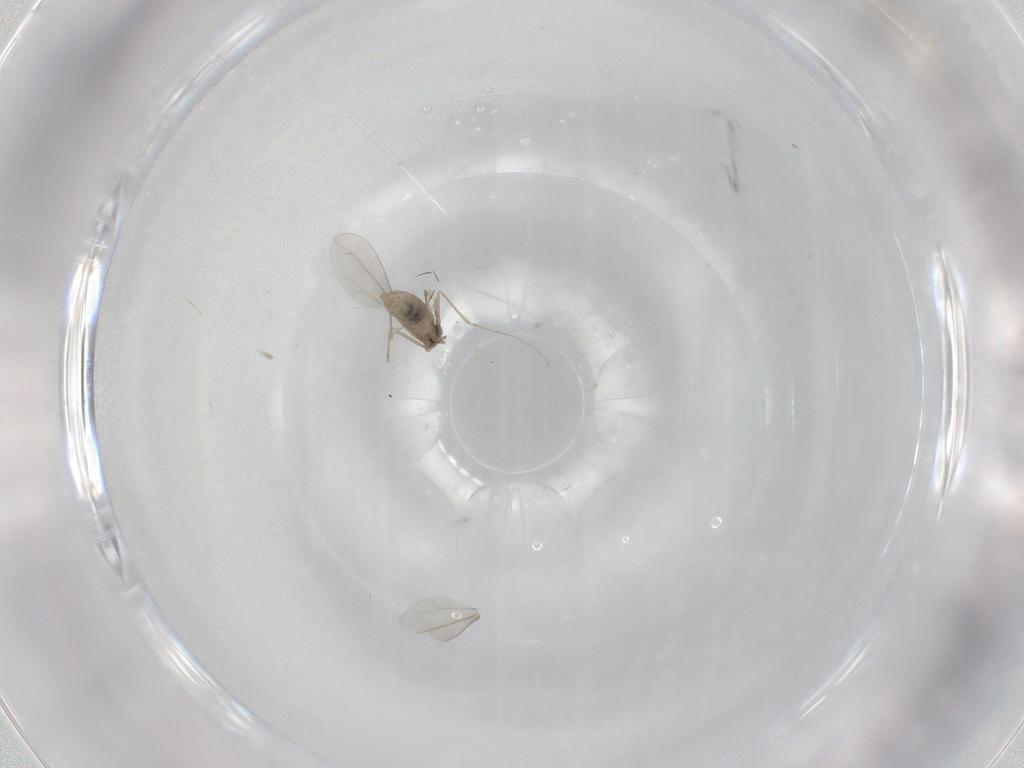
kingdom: Animalia
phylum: Arthropoda
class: Insecta
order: Diptera
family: Cecidomyiidae
